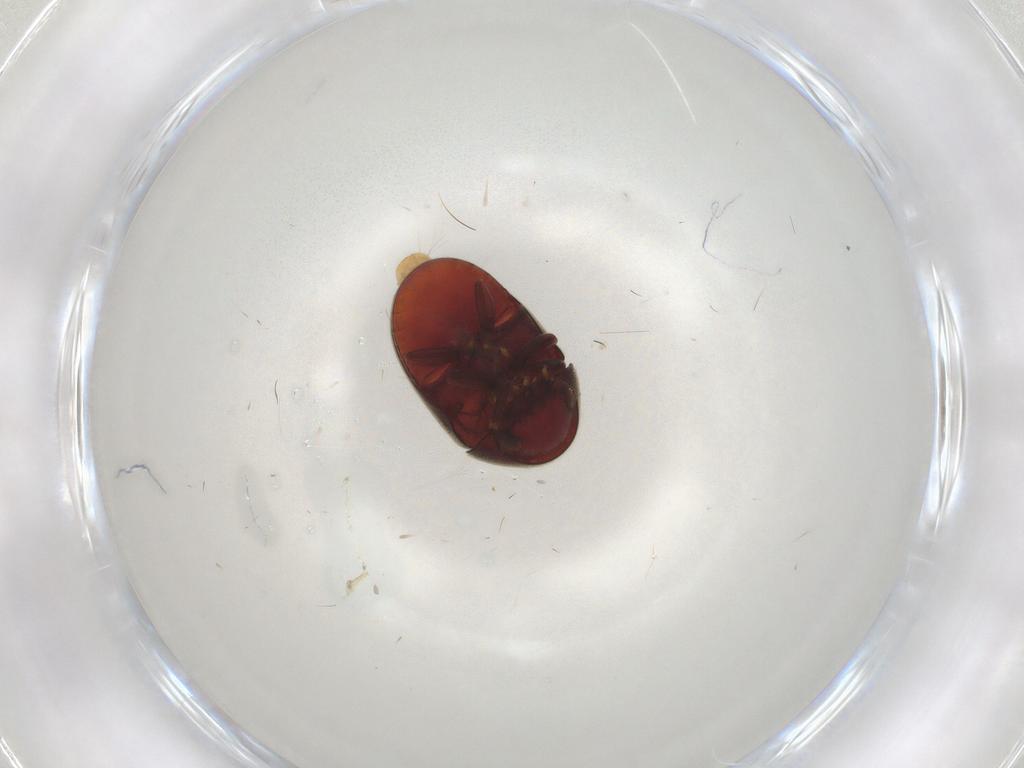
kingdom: Animalia
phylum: Arthropoda
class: Insecta
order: Coleoptera
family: Ptinidae
